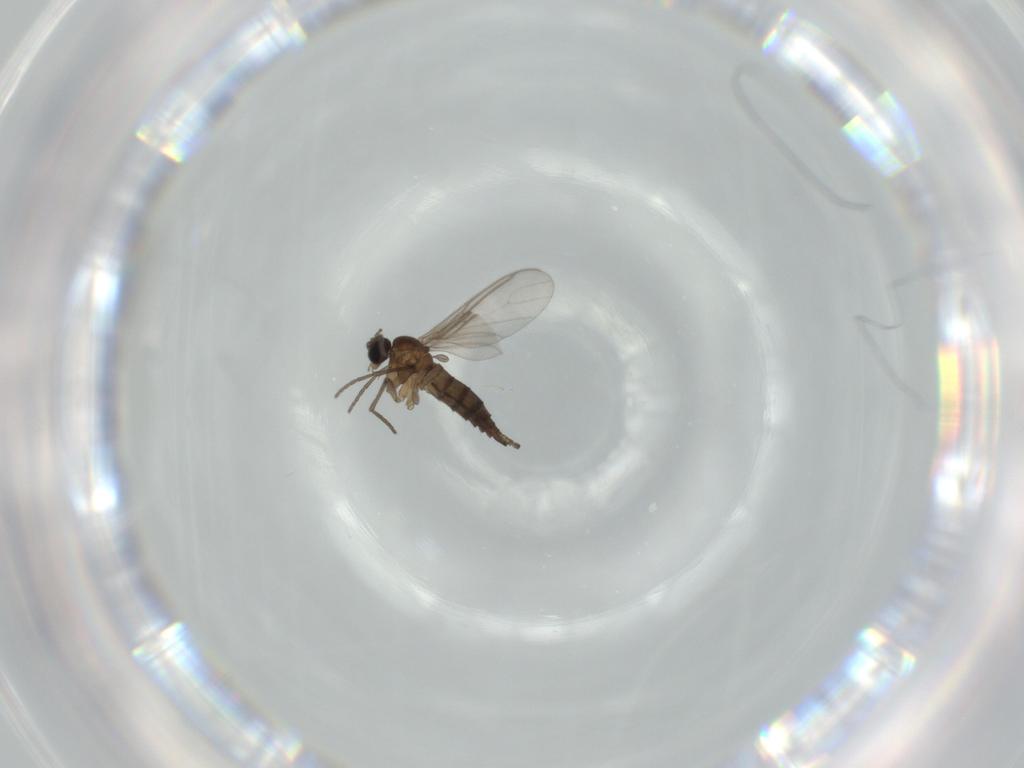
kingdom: Animalia
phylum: Arthropoda
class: Insecta
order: Diptera
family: Sciaridae
